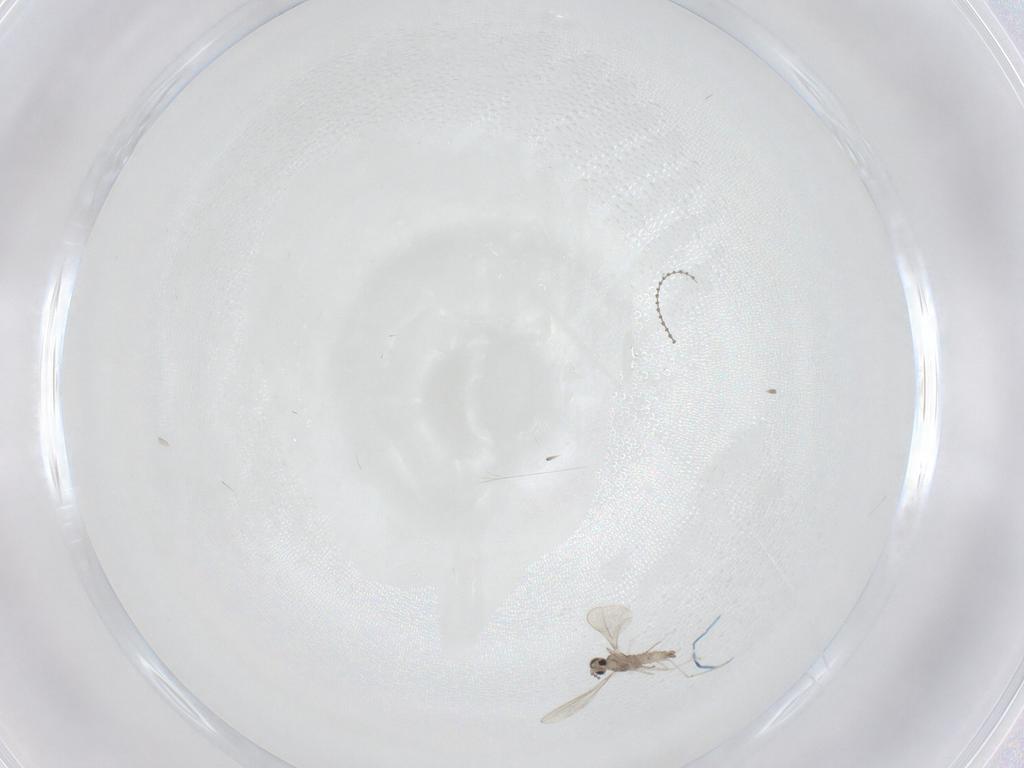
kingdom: Animalia
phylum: Arthropoda
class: Insecta
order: Diptera
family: Cecidomyiidae
